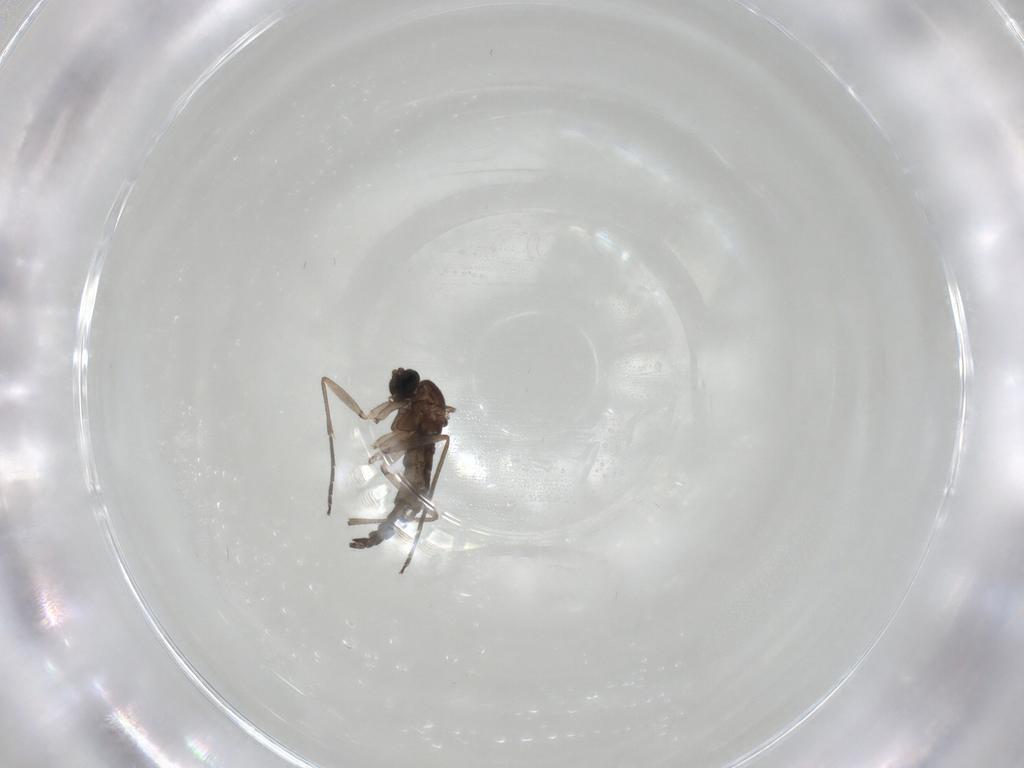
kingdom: Animalia
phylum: Arthropoda
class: Insecta
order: Diptera
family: Sciaridae
